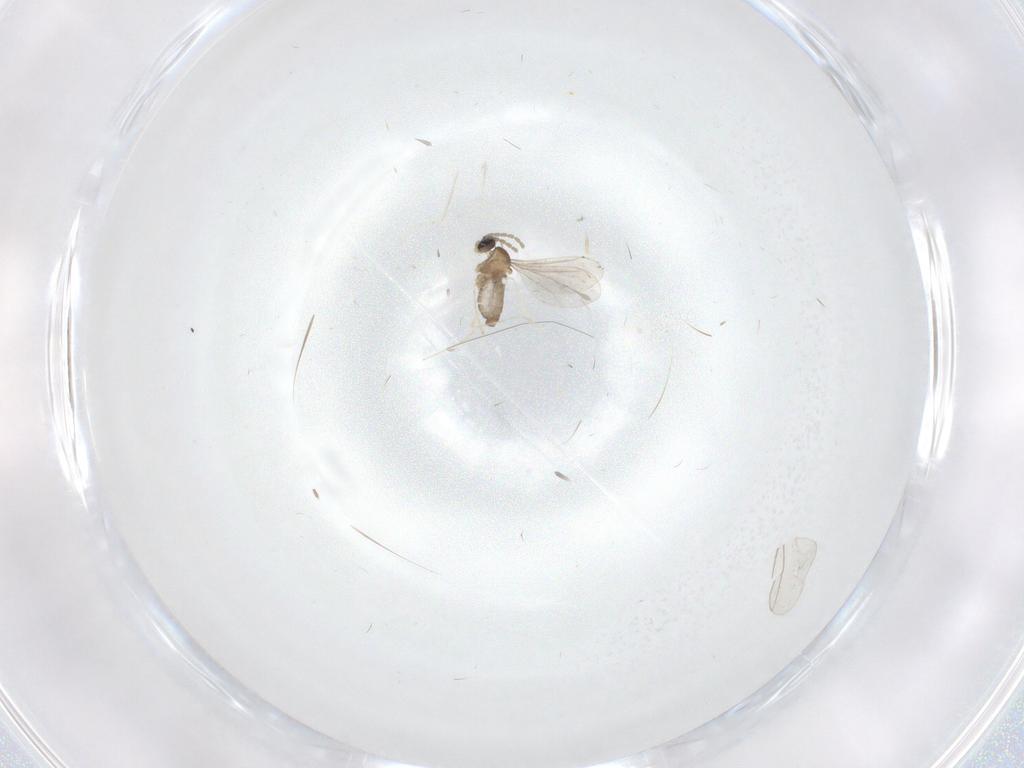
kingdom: Animalia
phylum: Arthropoda
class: Insecta
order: Diptera
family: Cecidomyiidae
